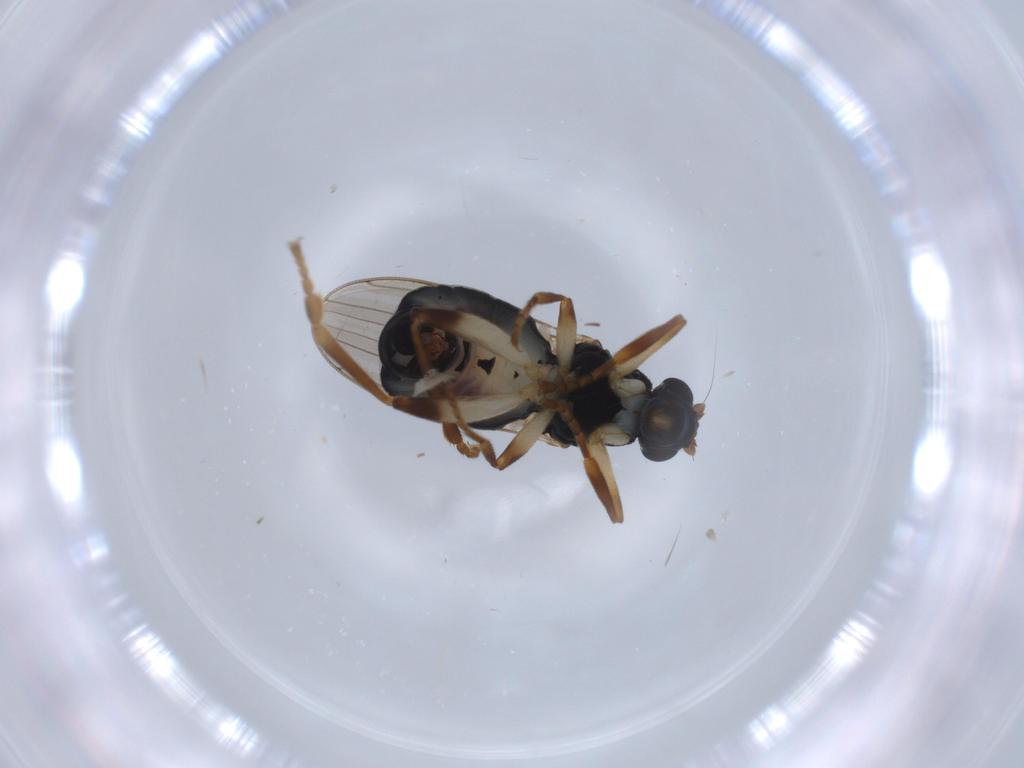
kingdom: Animalia
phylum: Arthropoda
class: Insecta
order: Diptera
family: Sphaeroceridae
